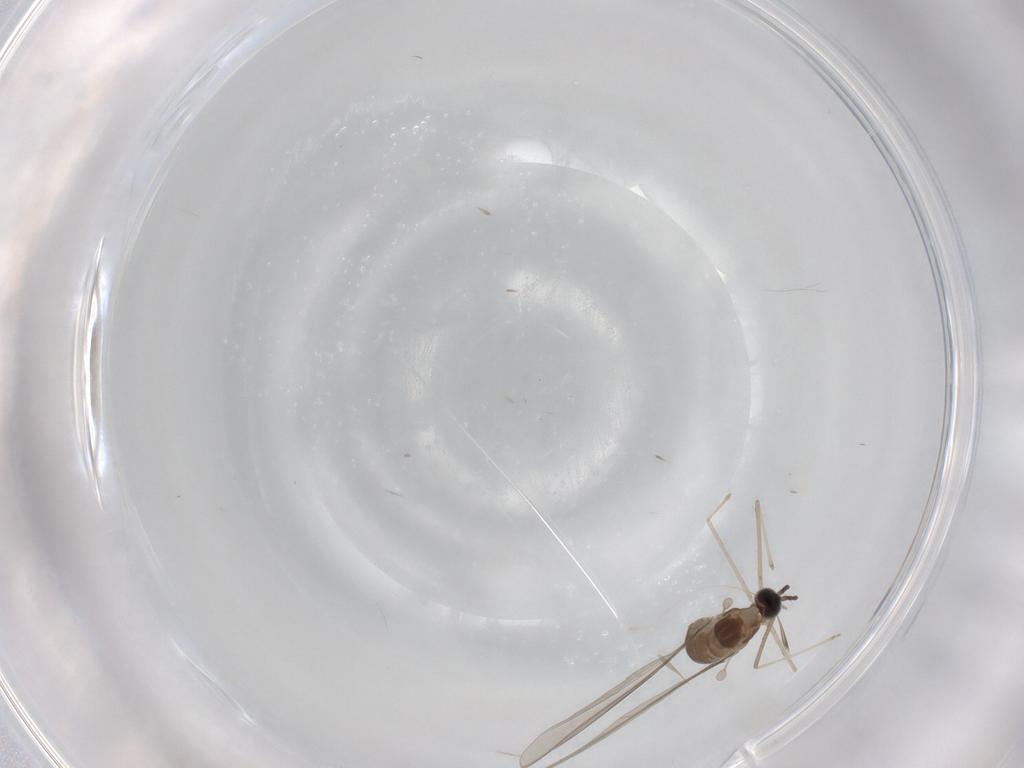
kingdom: Animalia
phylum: Arthropoda
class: Insecta
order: Diptera
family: Cecidomyiidae
